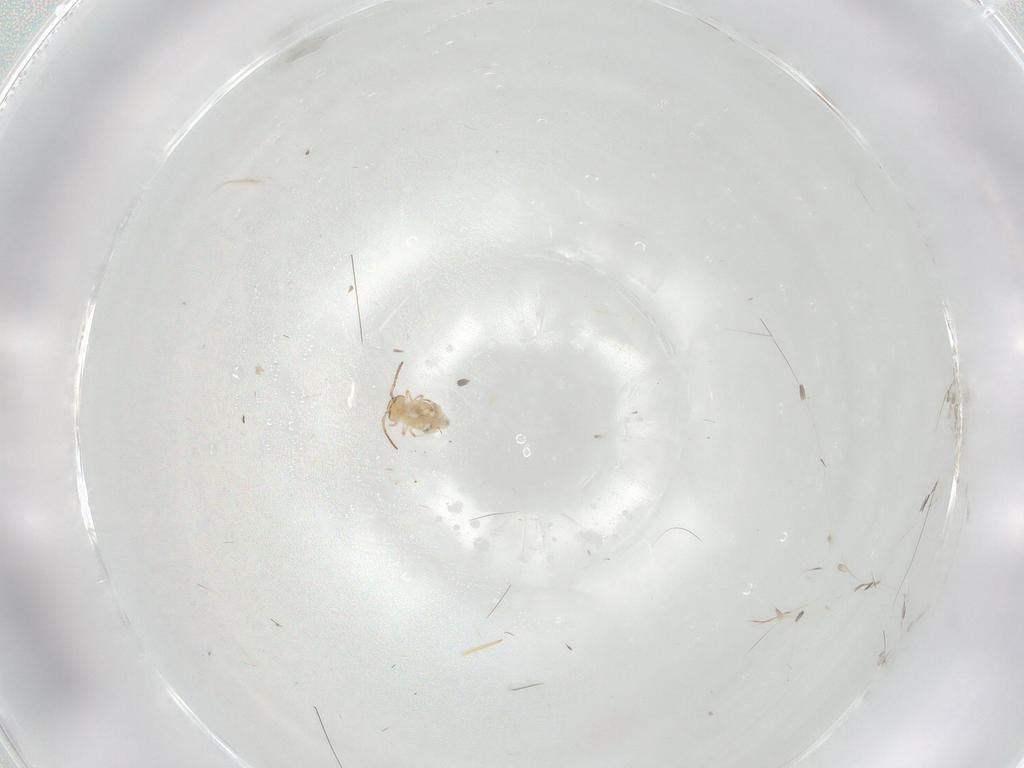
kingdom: Animalia
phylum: Arthropoda
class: Collembola
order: Symphypleona
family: Bourletiellidae
